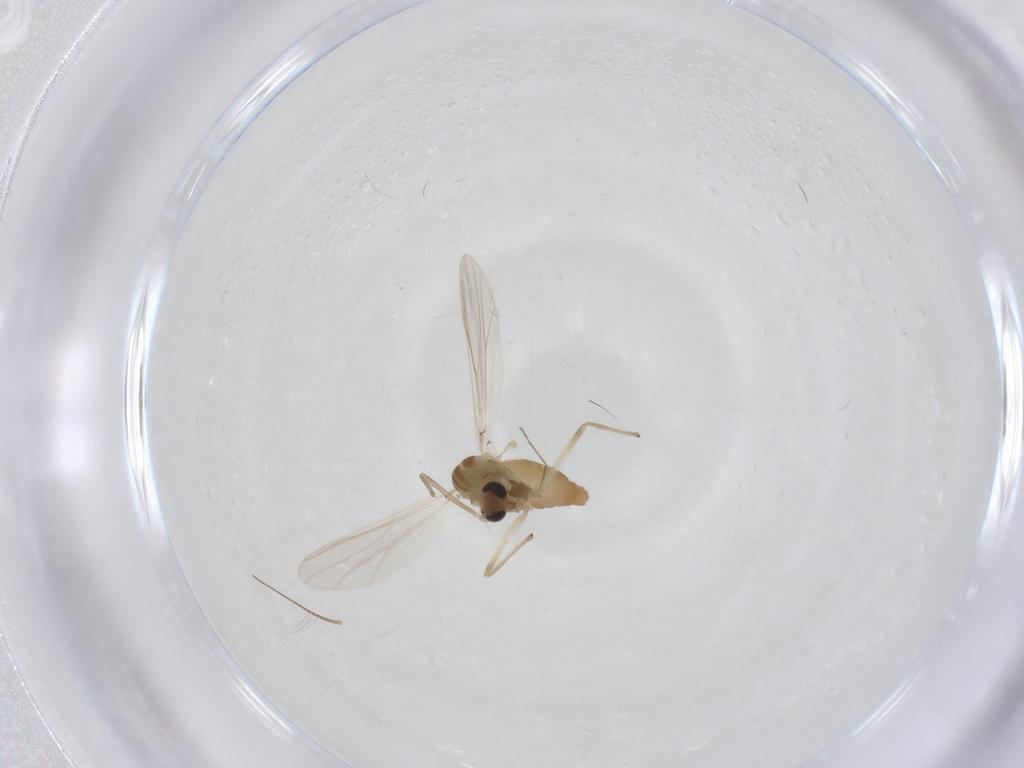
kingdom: Animalia
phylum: Arthropoda
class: Insecta
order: Diptera
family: Chironomidae
